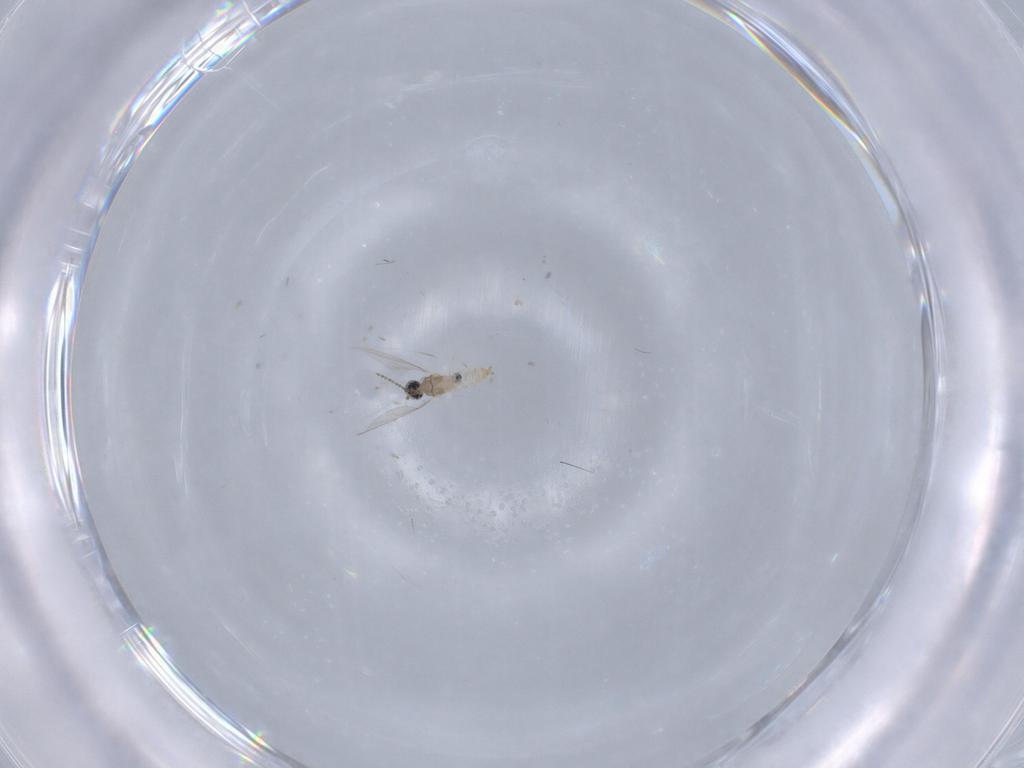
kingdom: Animalia
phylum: Arthropoda
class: Insecta
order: Diptera
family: Cecidomyiidae
